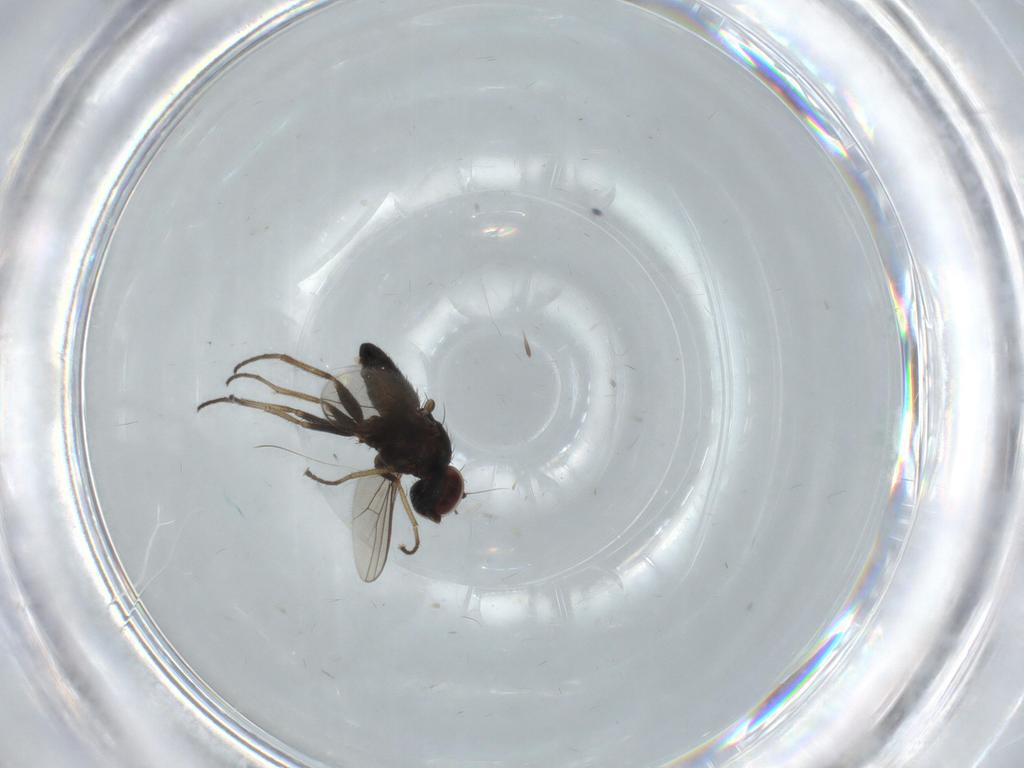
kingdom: Animalia
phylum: Arthropoda
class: Insecta
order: Diptera
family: Dolichopodidae
